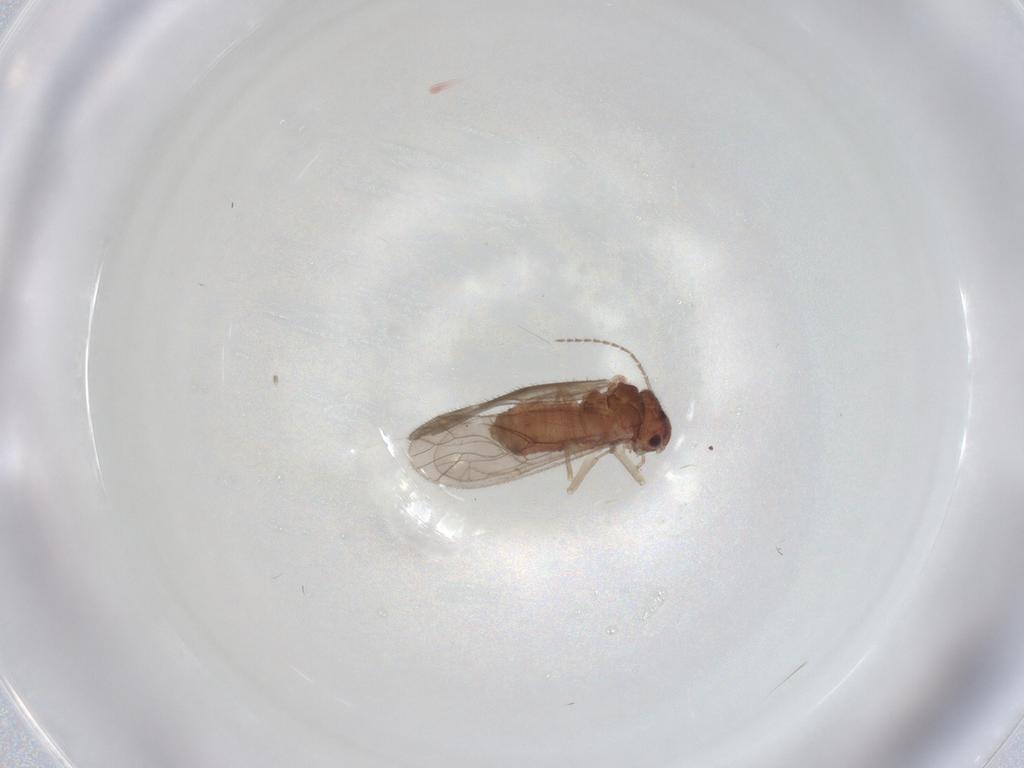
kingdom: Animalia
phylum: Arthropoda
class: Insecta
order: Psocodea
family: Caeciliusidae
